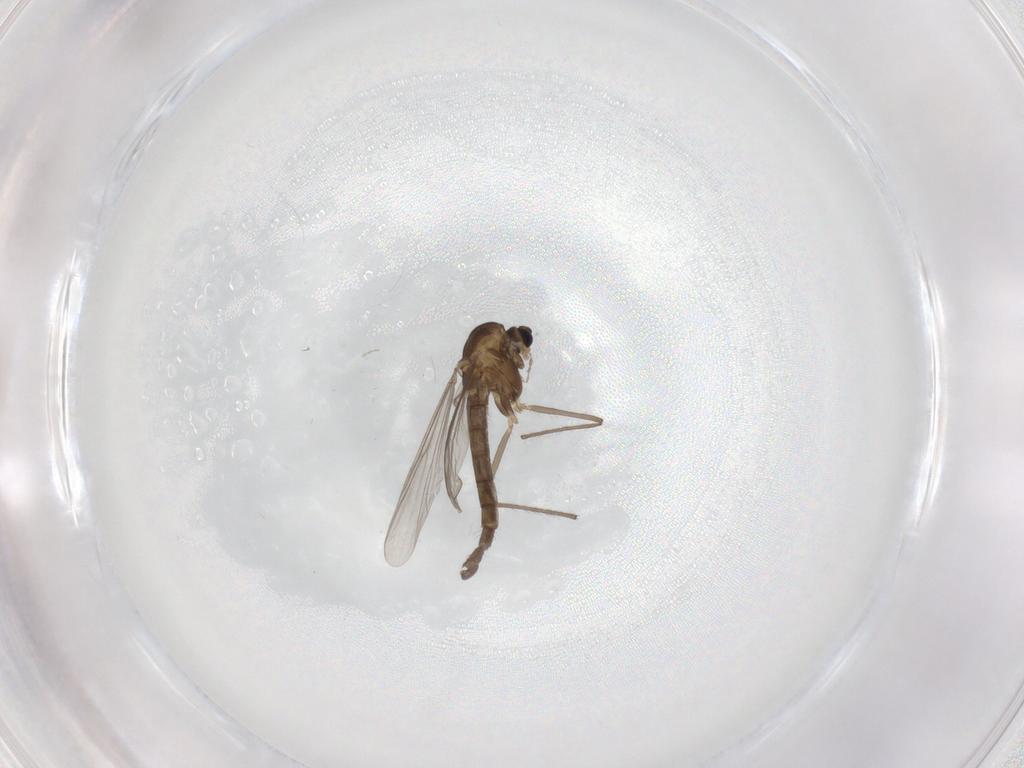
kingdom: Animalia
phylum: Arthropoda
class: Insecta
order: Diptera
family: Chironomidae
